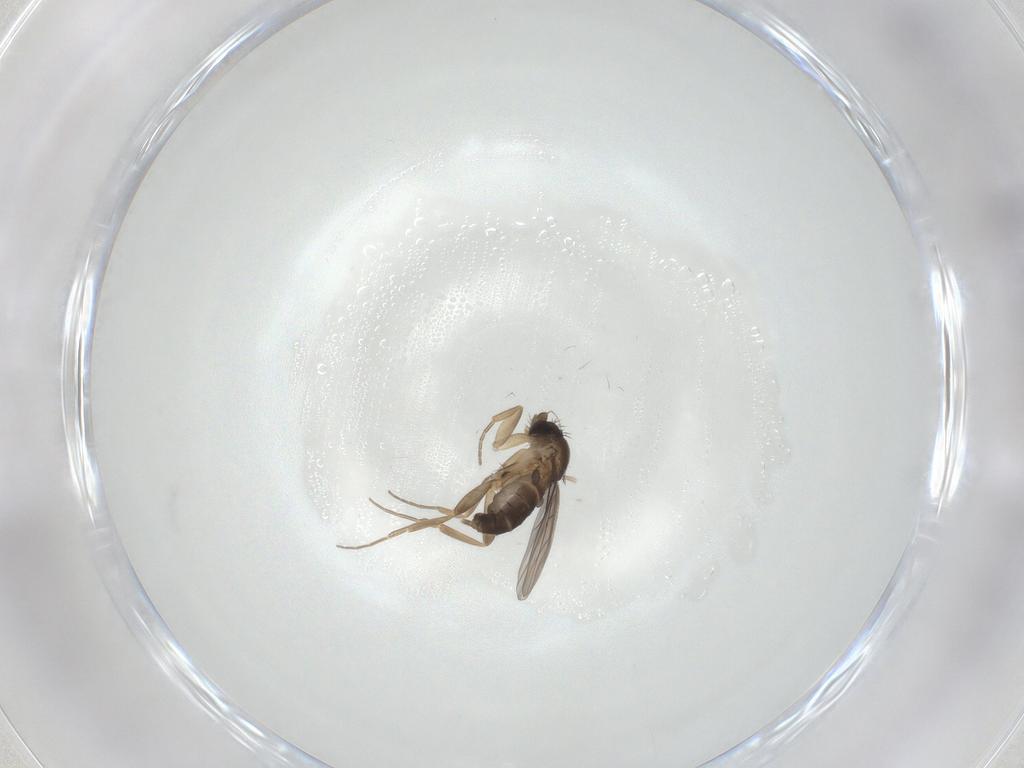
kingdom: Animalia
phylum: Arthropoda
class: Insecta
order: Diptera
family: Cecidomyiidae
